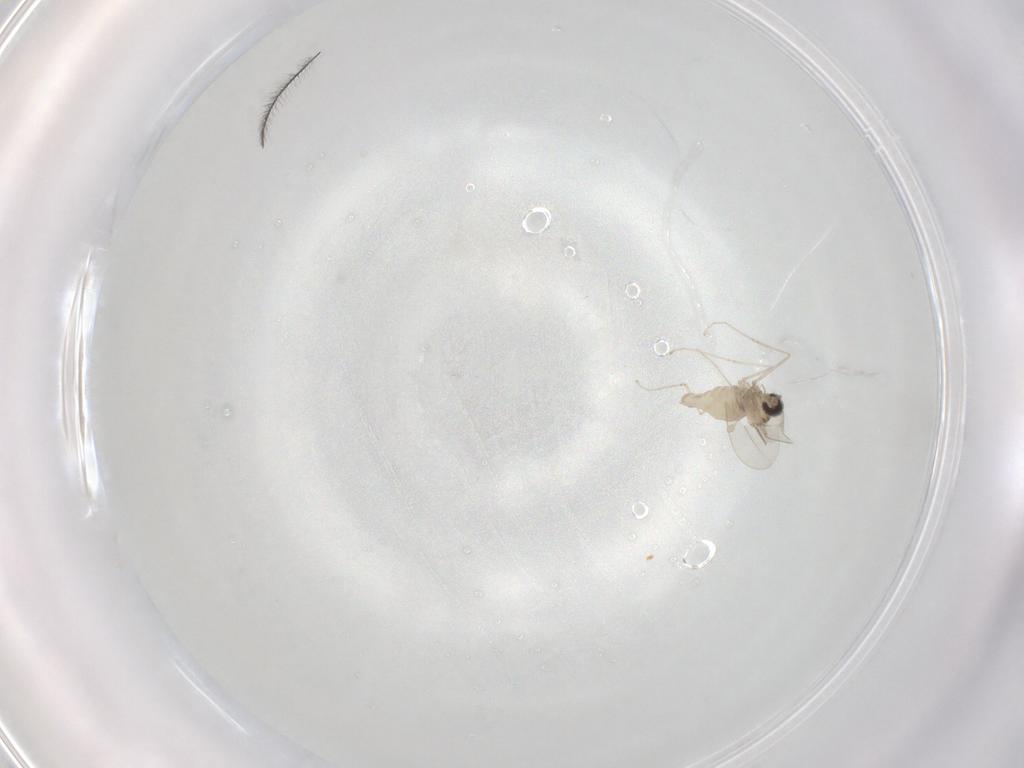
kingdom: Animalia
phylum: Arthropoda
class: Insecta
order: Diptera
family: Cecidomyiidae
